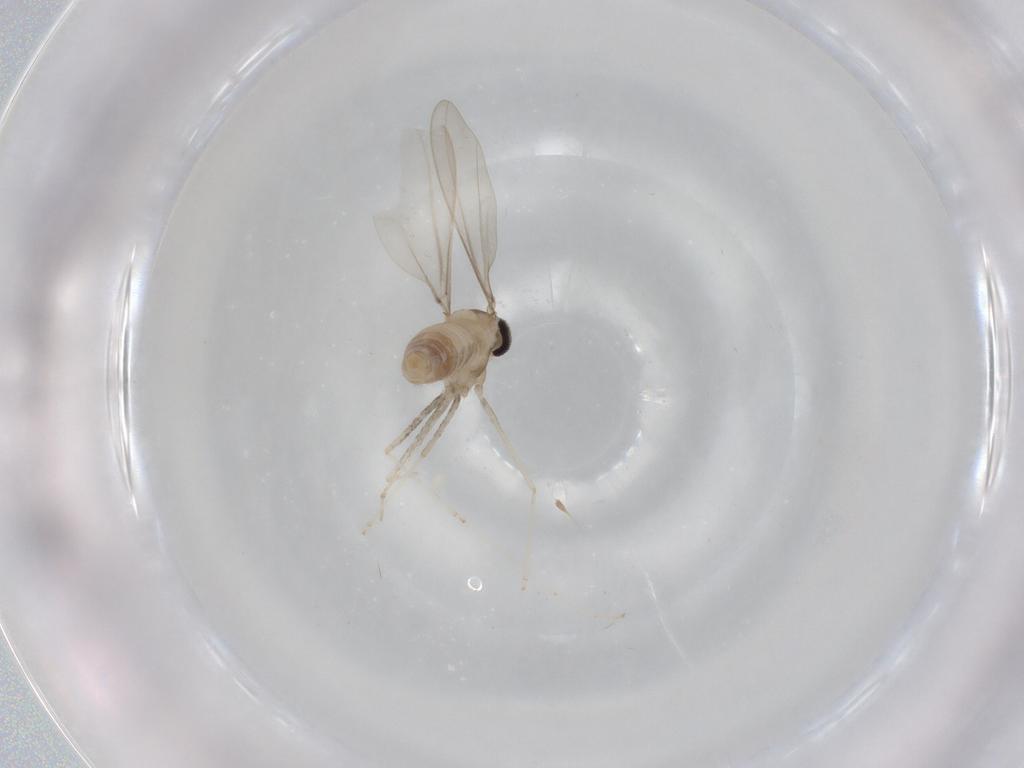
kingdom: Animalia
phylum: Arthropoda
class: Insecta
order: Diptera
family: Cecidomyiidae
